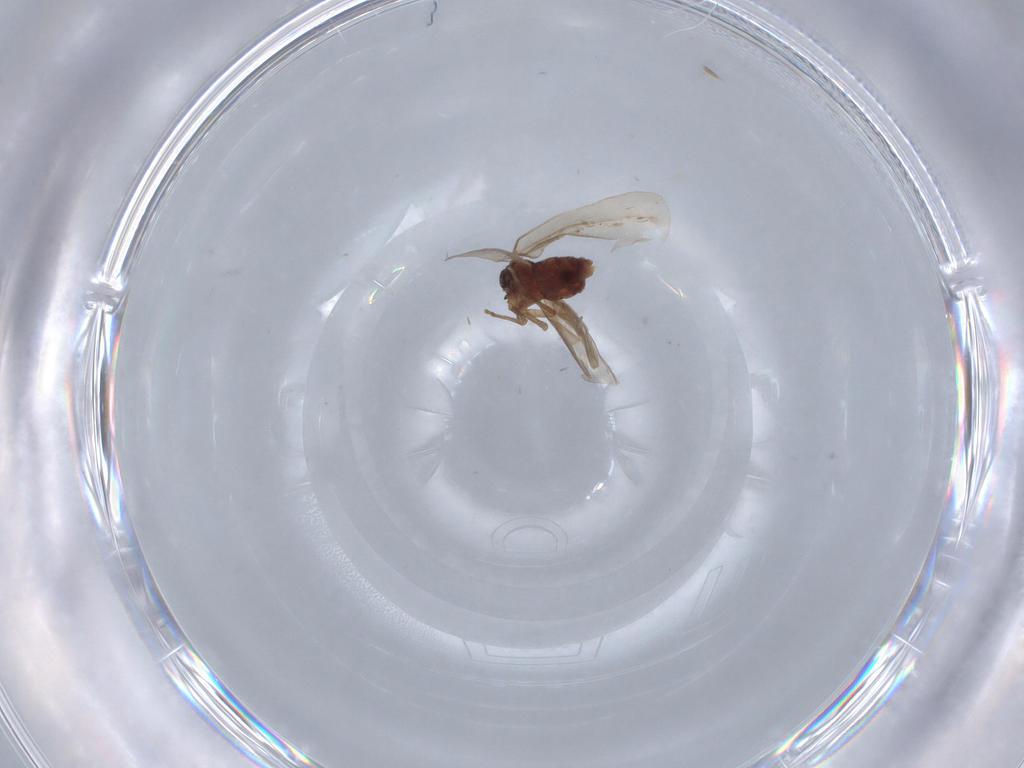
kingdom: Animalia
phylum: Arthropoda
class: Insecta
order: Hemiptera
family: Aleyrodidae
